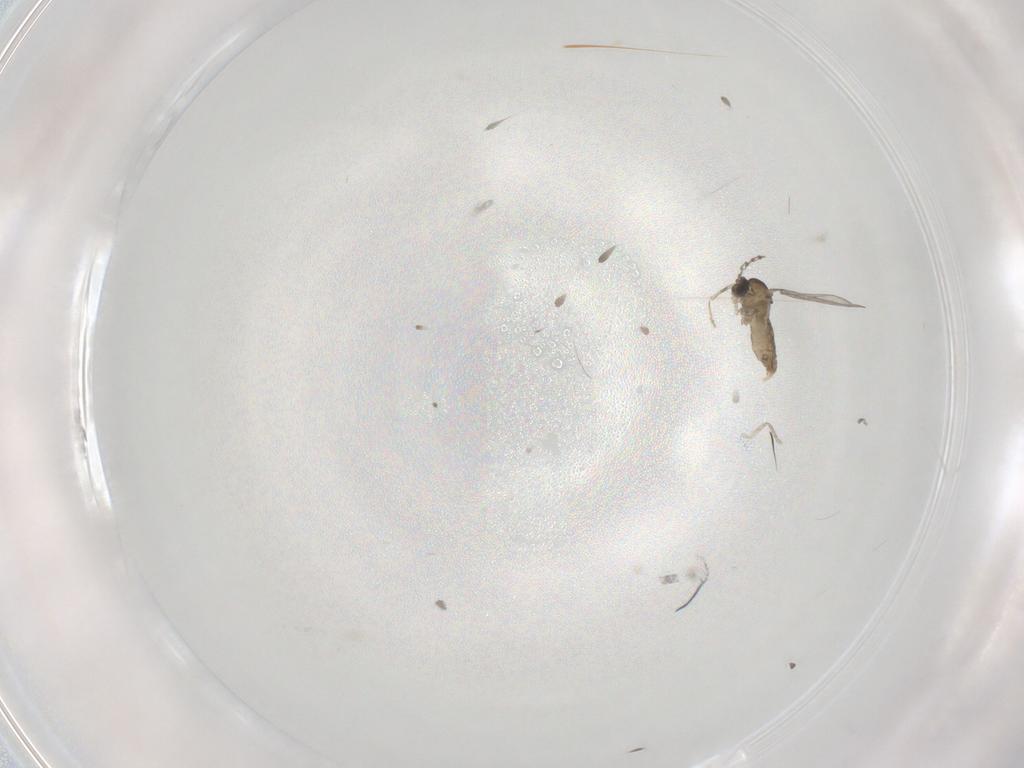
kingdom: Animalia
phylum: Arthropoda
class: Insecta
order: Diptera
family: Cecidomyiidae
